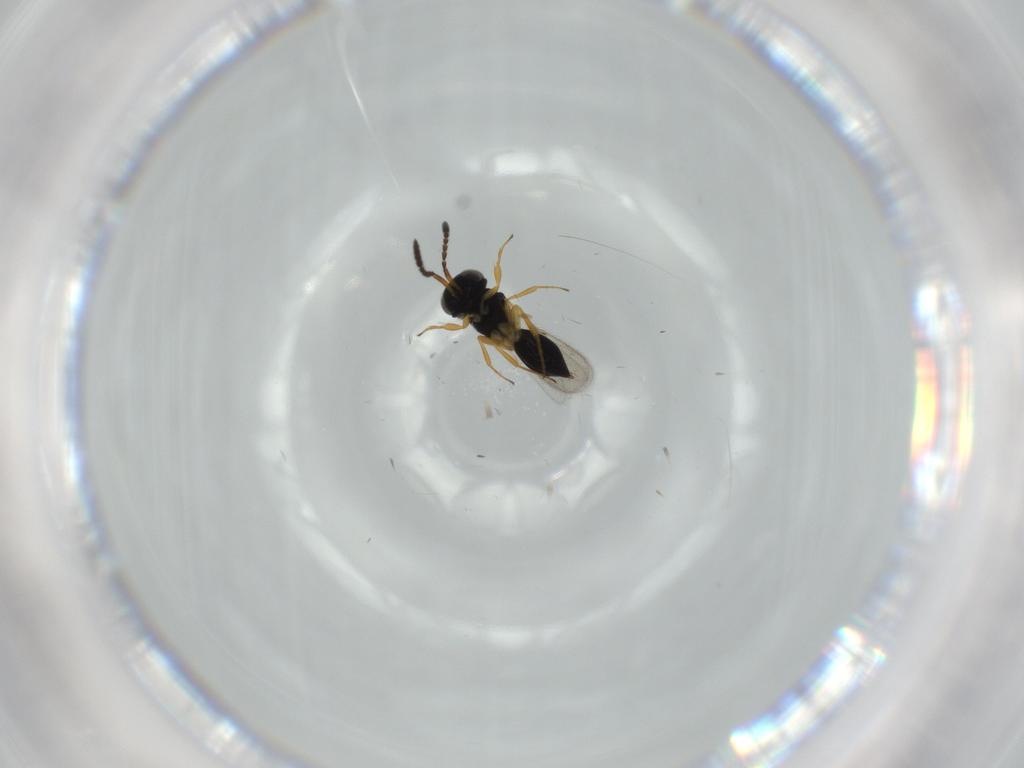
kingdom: Animalia
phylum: Arthropoda
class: Insecta
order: Hymenoptera
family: Scelionidae
